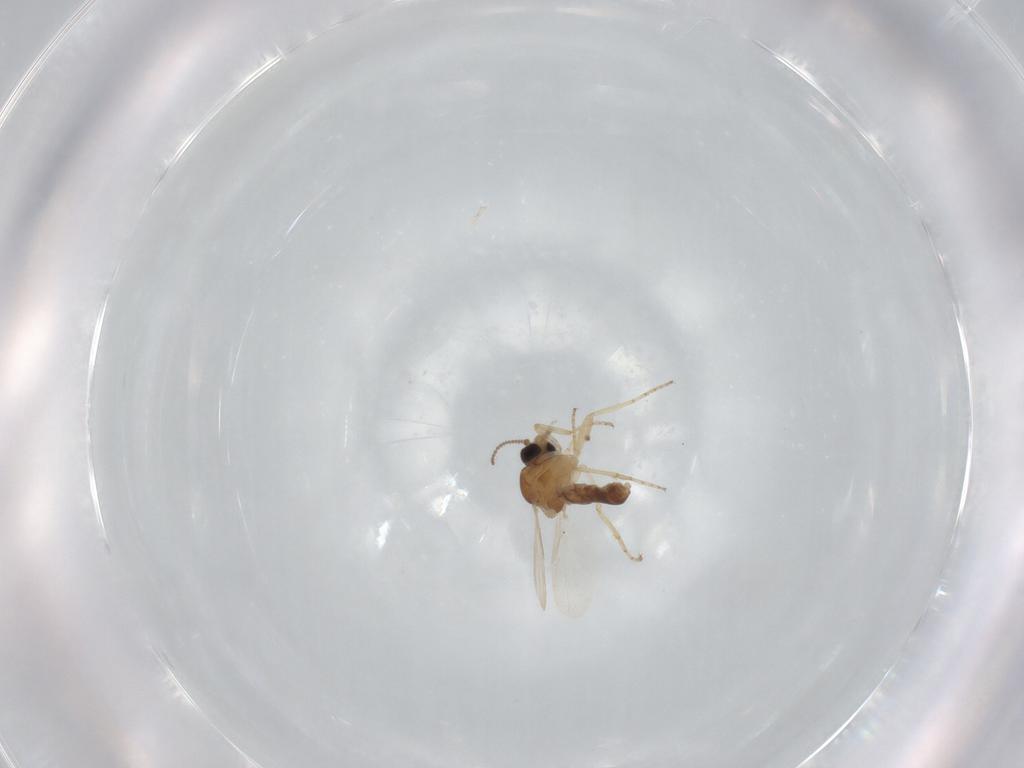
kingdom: Animalia
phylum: Arthropoda
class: Insecta
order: Diptera
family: Ceratopogonidae
